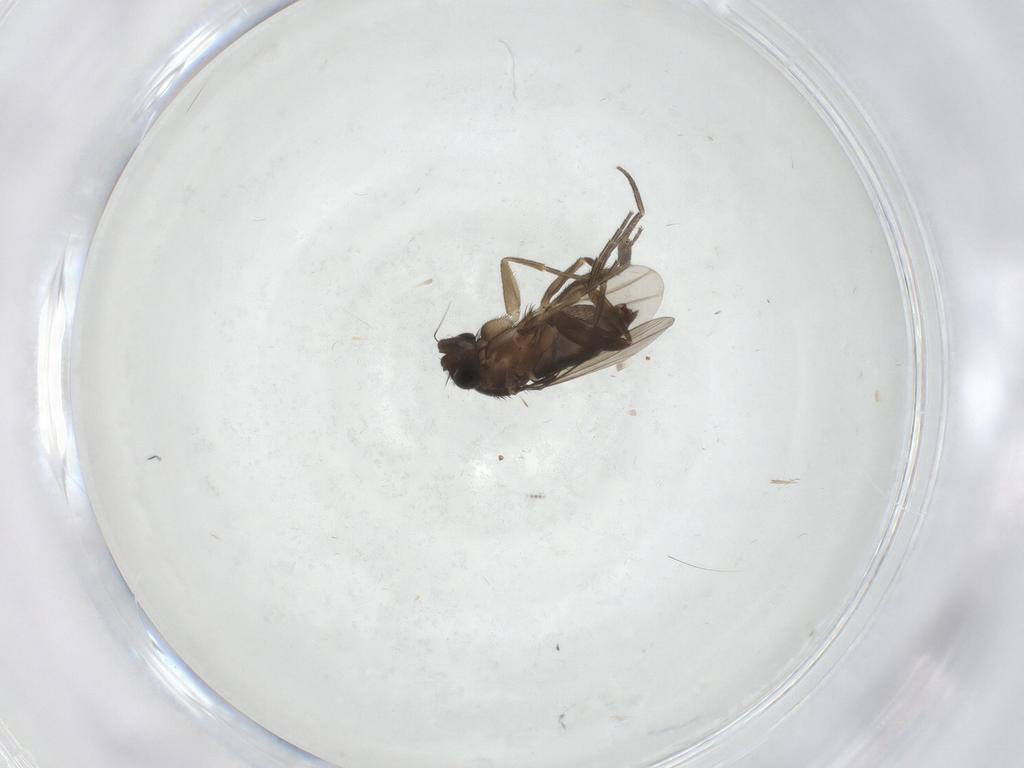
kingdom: Animalia
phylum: Arthropoda
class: Insecta
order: Diptera
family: Phoridae
